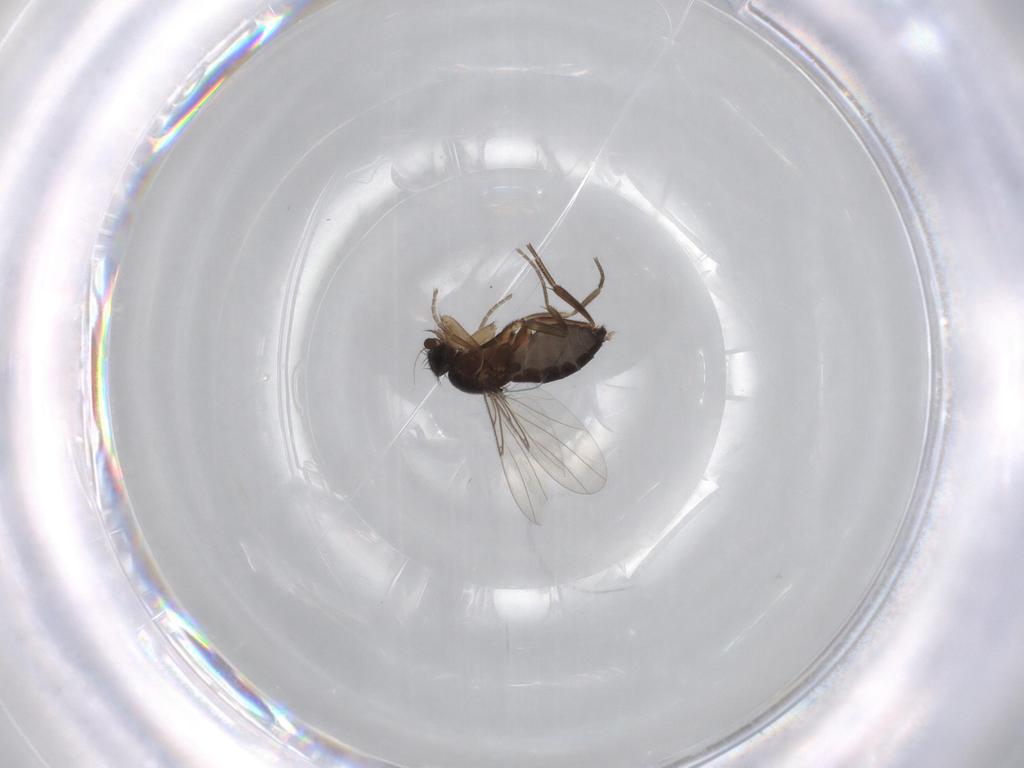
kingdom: Animalia
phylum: Arthropoda
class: Insecta
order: Diptera
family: Phoridae
